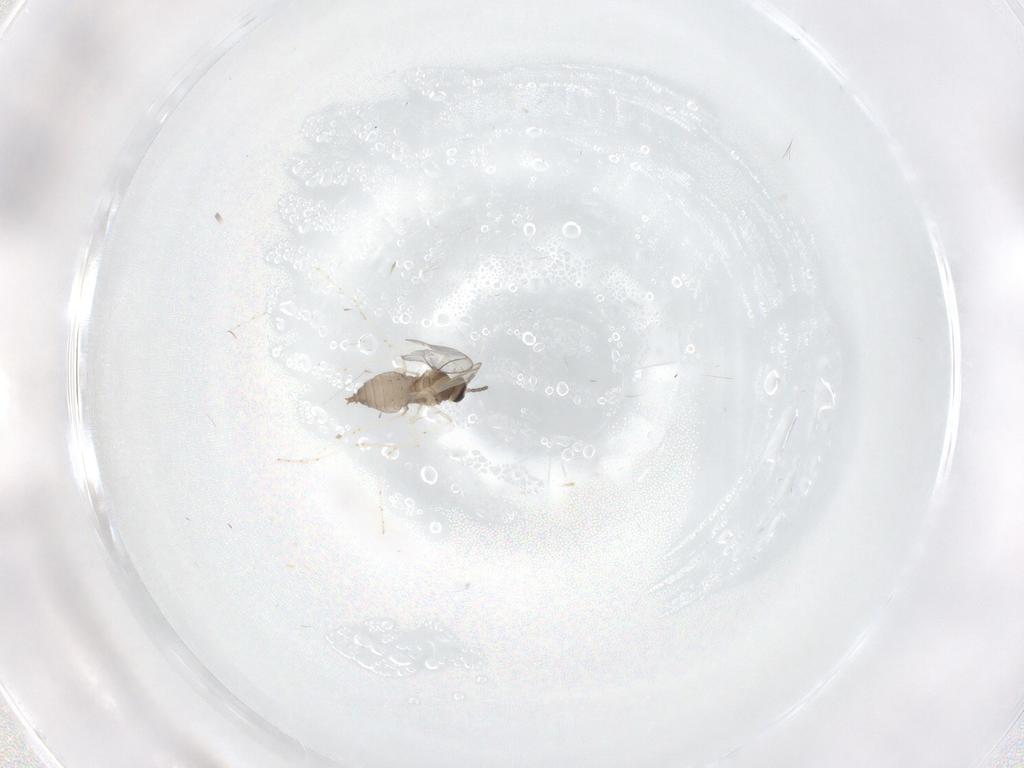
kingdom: Animalia
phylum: Arthropoda
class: Insecta
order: Diptera
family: Cecidomyiidae
